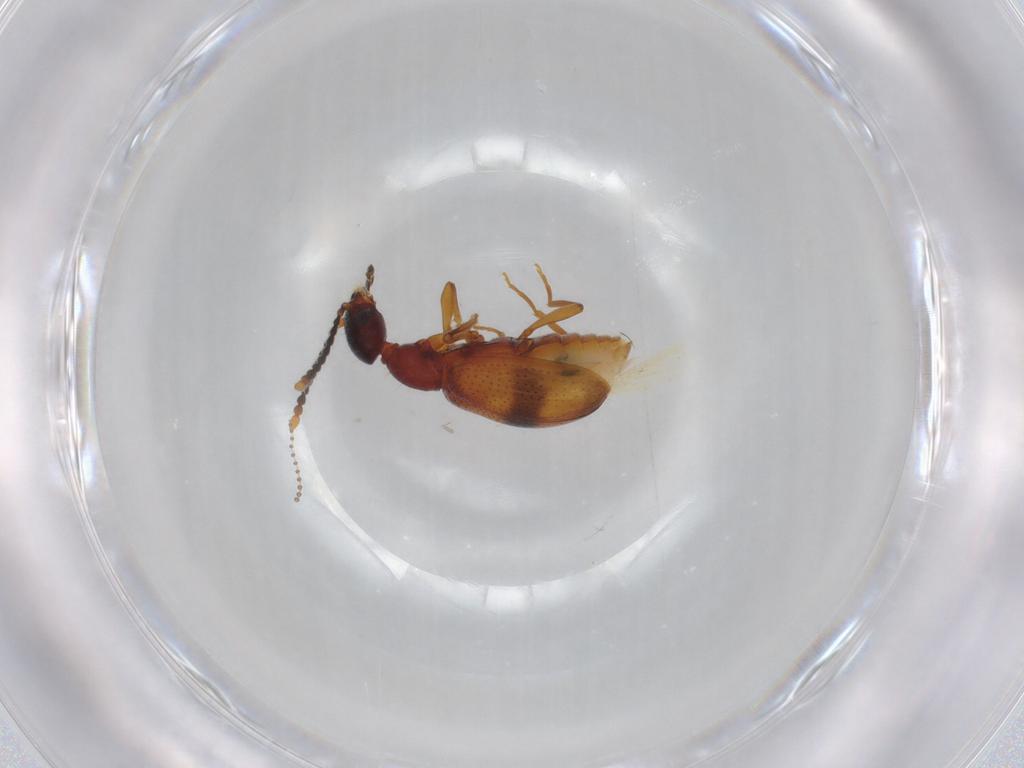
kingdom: Animalia
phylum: Arthropoda
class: Insecta
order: Coleoptera
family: Anthicidae
